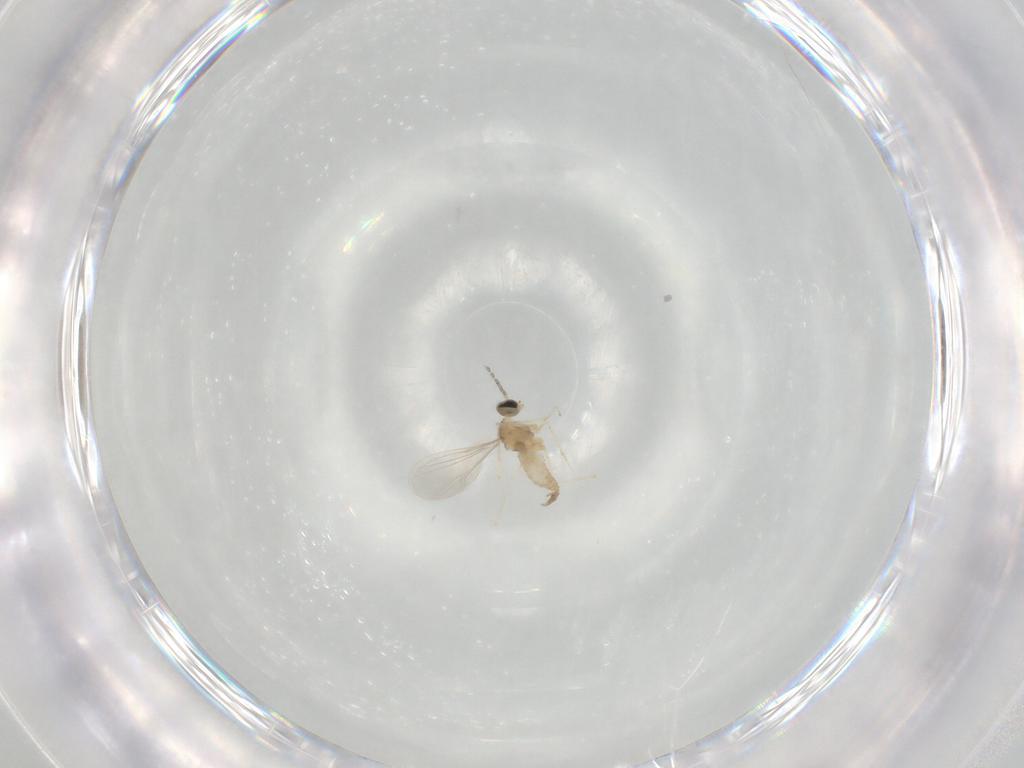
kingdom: Animalia
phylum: Arthropoda
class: Insecta
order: Diptera
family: Cecidomyiidae
